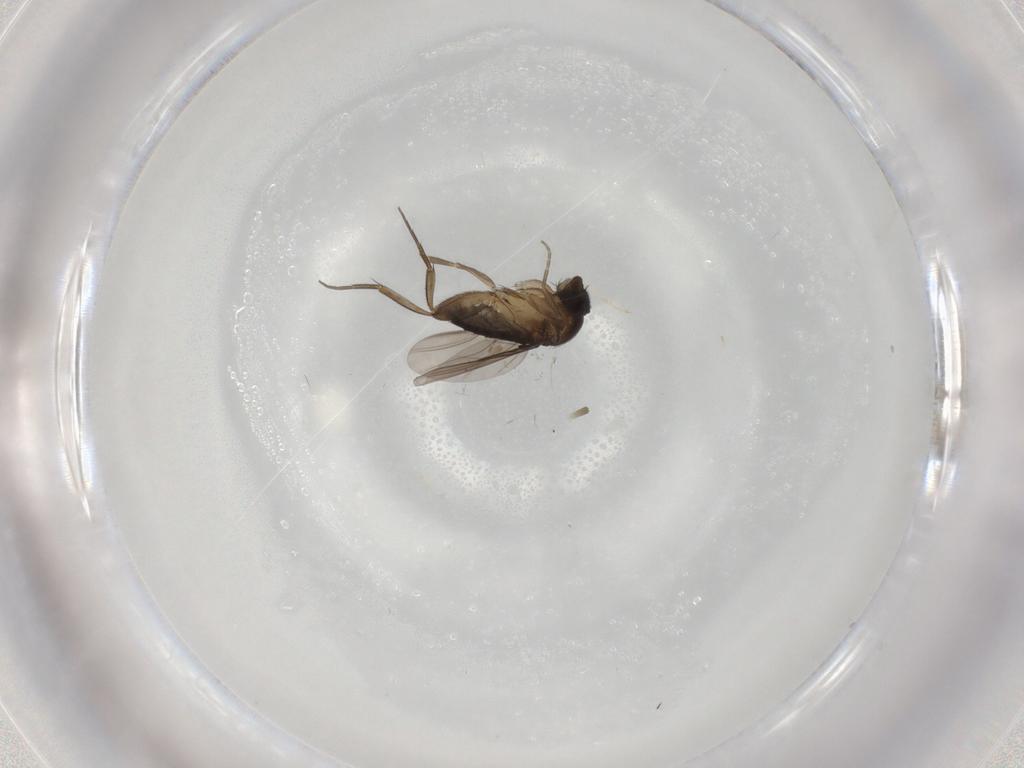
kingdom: Animalia
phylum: Arthropoda
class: Insecta
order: Diptera
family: Phoridae
